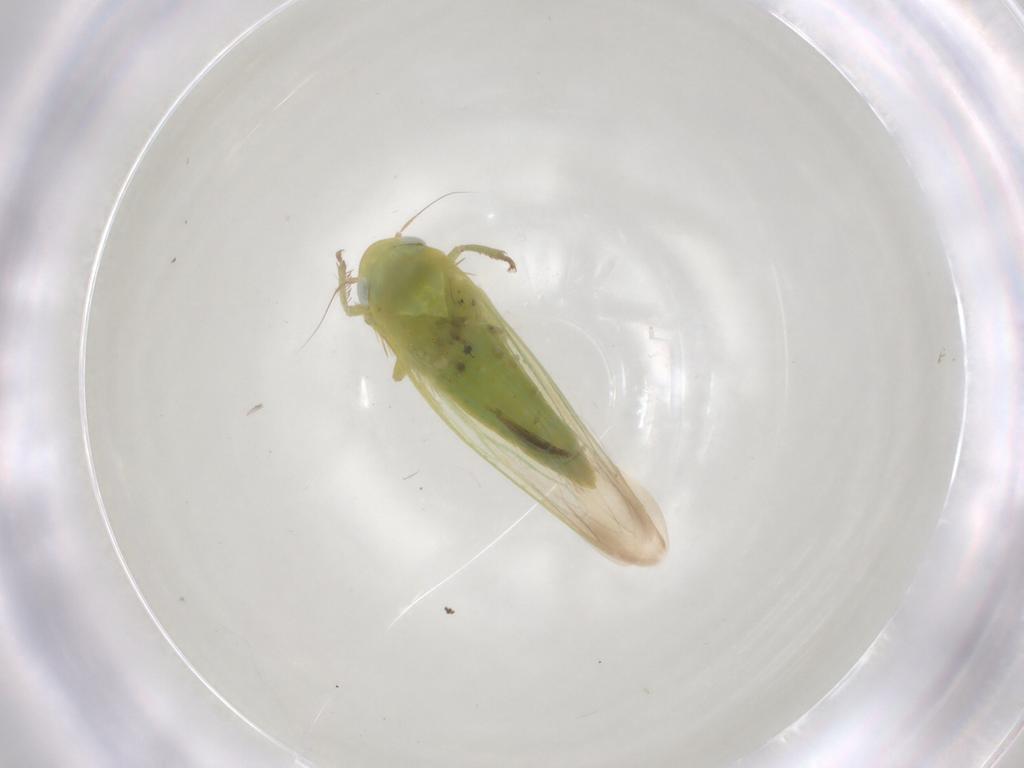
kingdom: Animalia
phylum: Arthropoda
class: Insecta
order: Hemiptera
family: Cicadellidae
